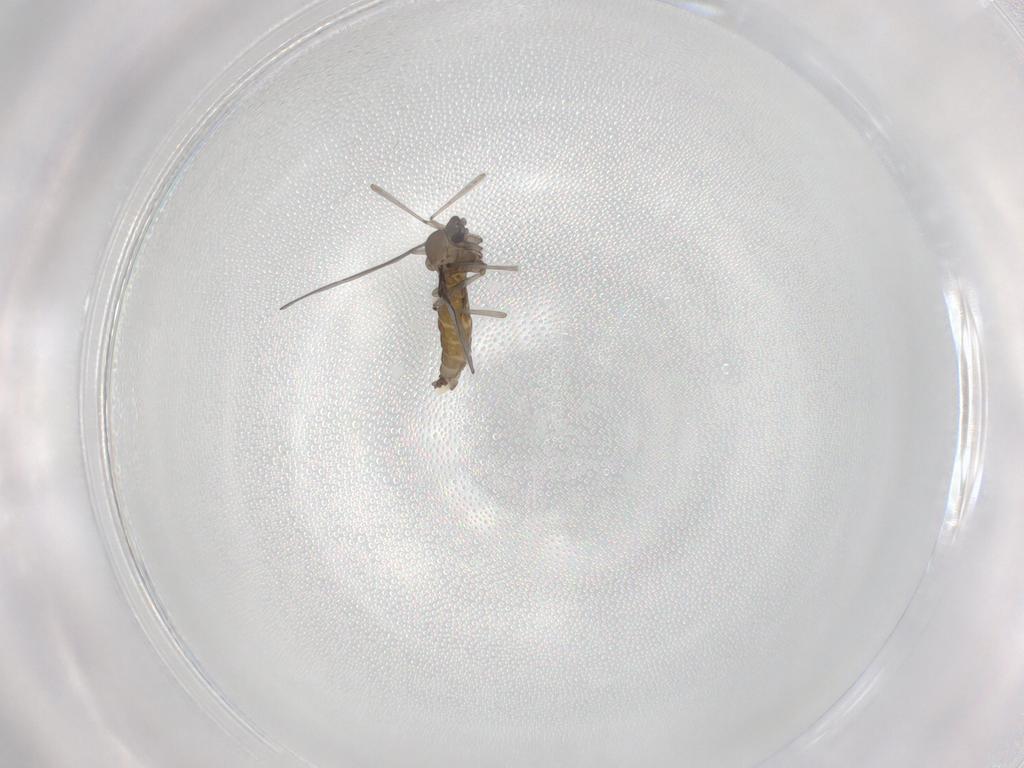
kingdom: Animalia
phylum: Arthropoda
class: Insecta
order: Diptera
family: Cecidomyiidae
